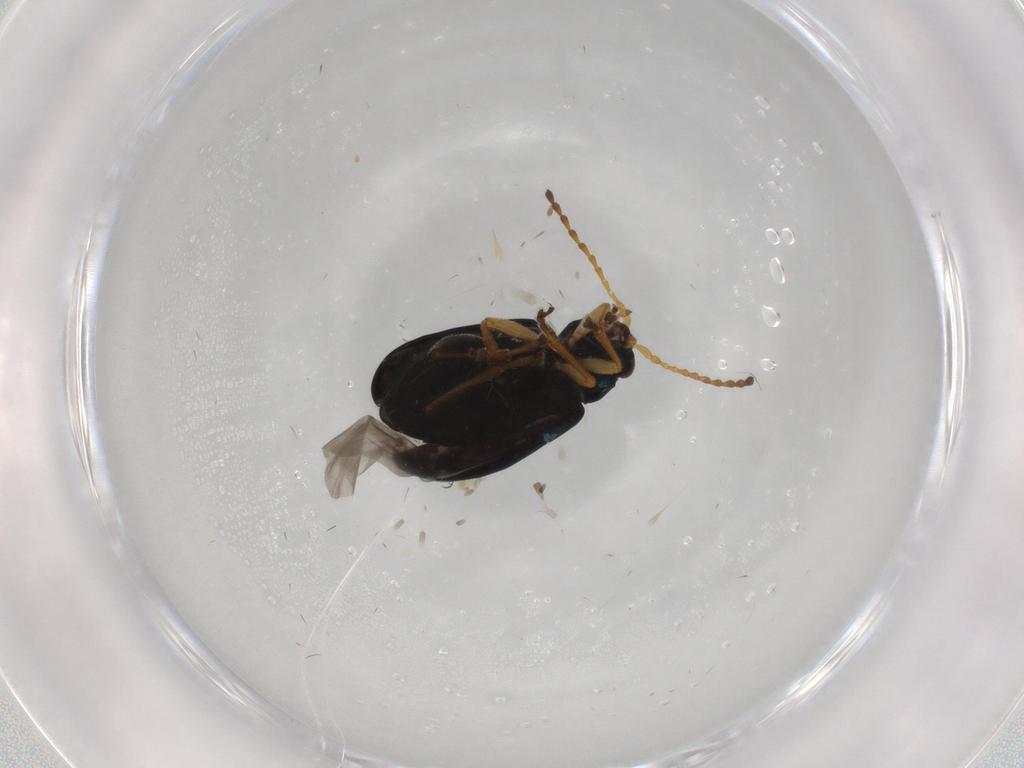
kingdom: Animalia
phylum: Arthropoda
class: Insecta
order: Coleoptera
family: Chrysomelidae
